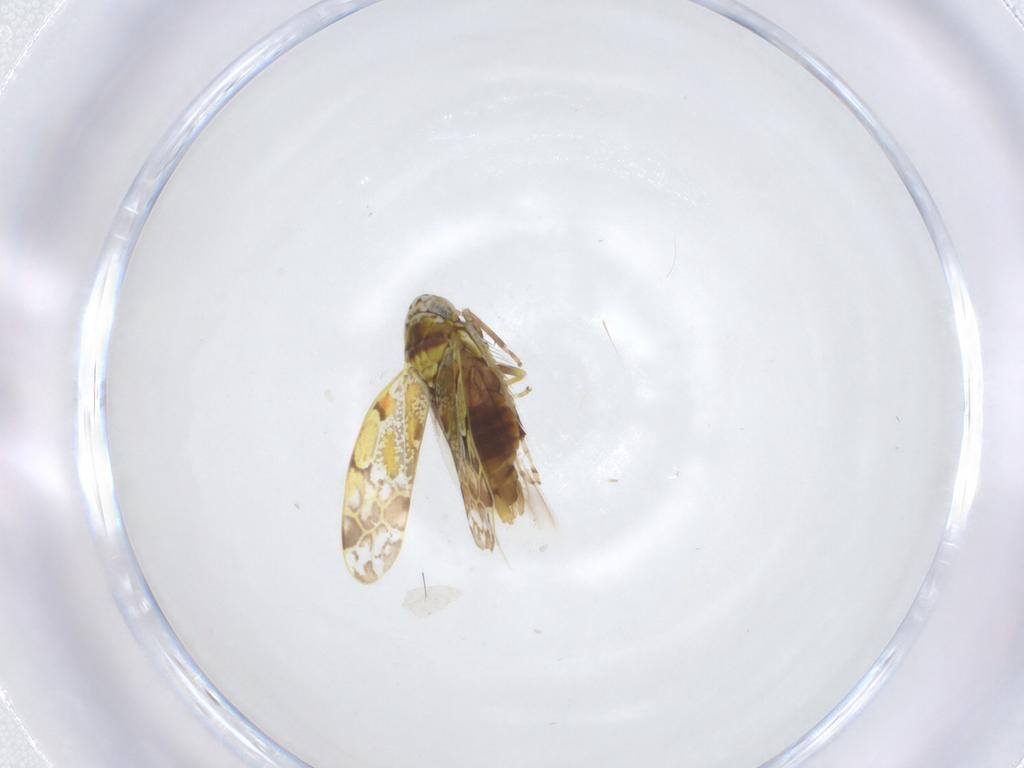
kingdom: Animalia
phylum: Arthropoda
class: Insecta
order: Hemiptera
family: Cicadellidae
